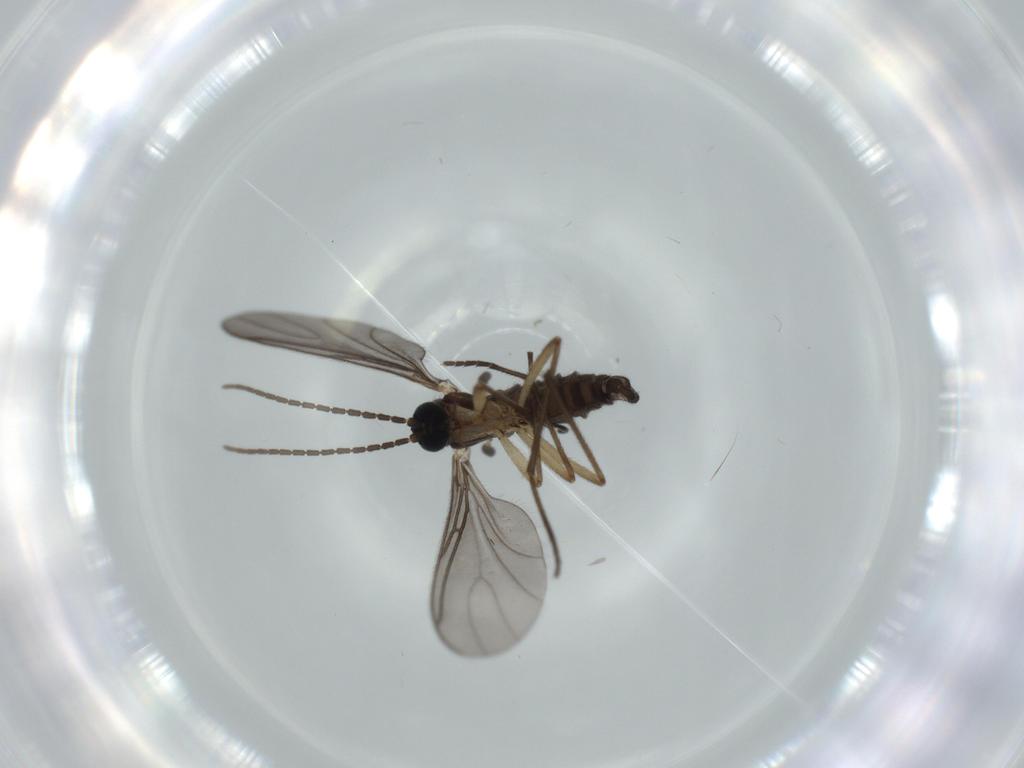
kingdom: Animalia
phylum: Arthropoda
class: Insecta
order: Diptera
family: Sciaridae
